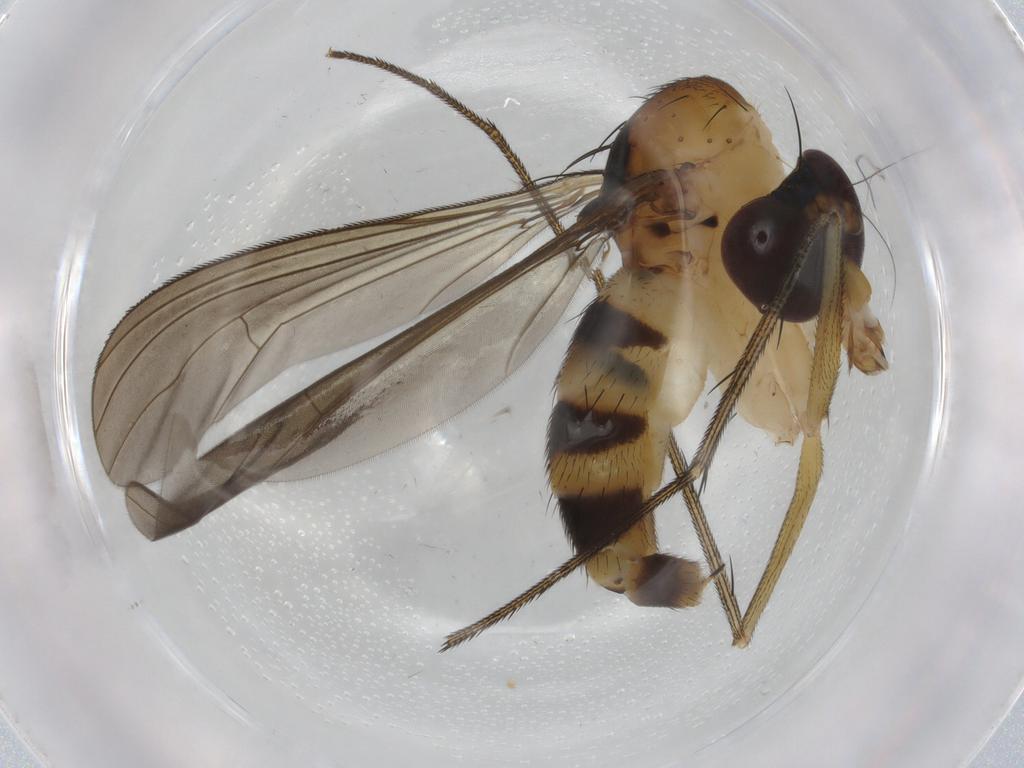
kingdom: Animalia
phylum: Arthropoda
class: Insecta
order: Diptera
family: Dolichopodidae
